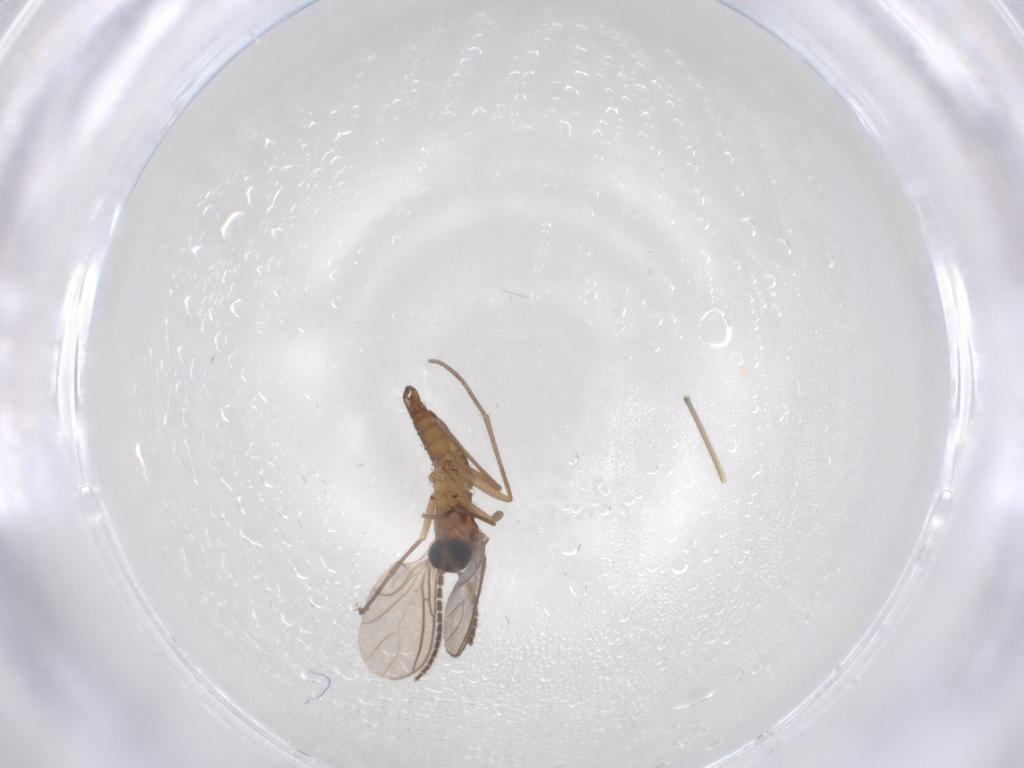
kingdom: Animalia
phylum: Arthropoda
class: Insecta
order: Diptera
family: Sciaridae
